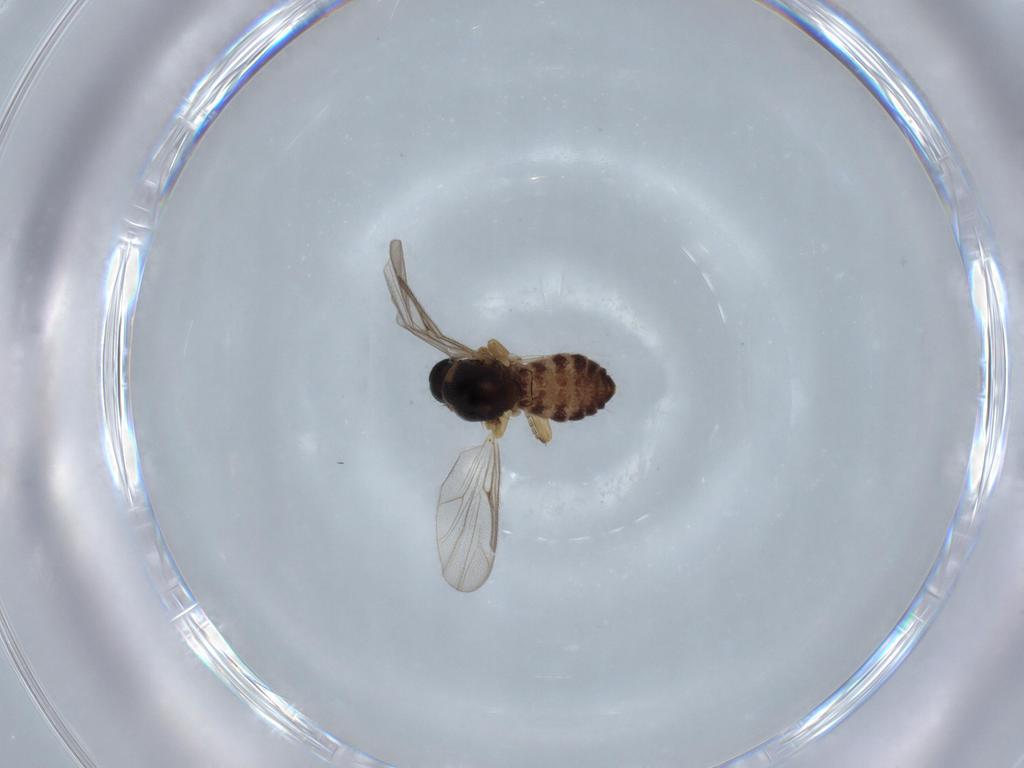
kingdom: Animalia
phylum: Arthropoda
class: Insecta
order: Diptera
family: Ceratopogonidae
